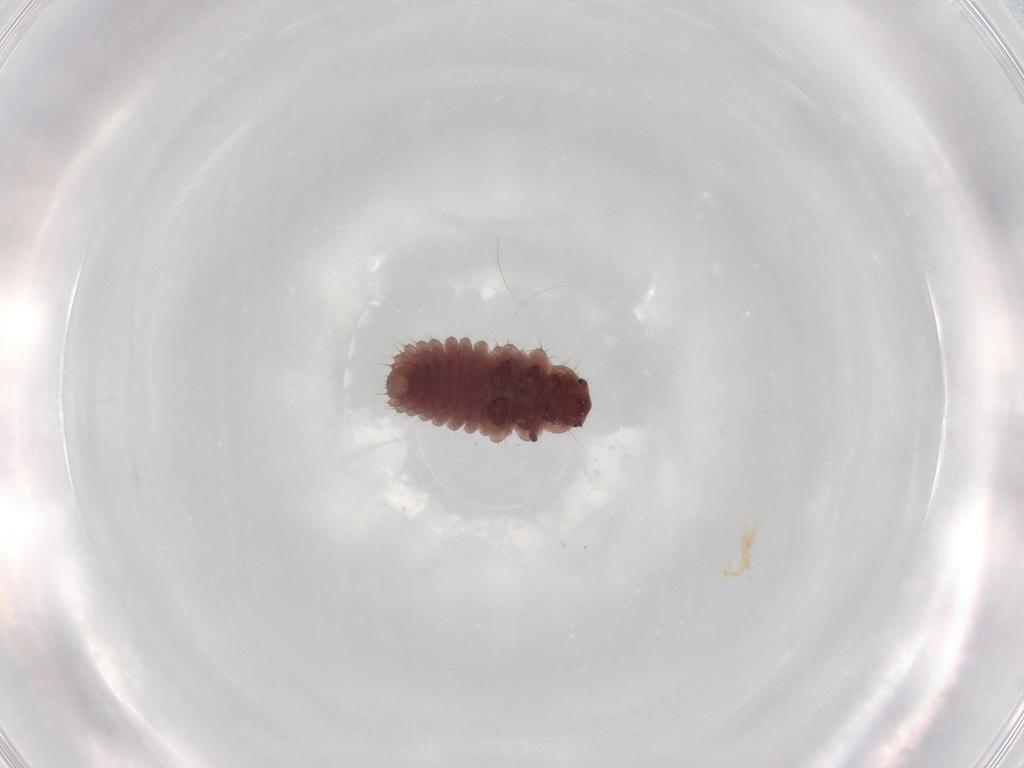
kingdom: Animalia
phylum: Arthropoda
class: Insecta
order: Coleoptera
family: Coccinellidae
